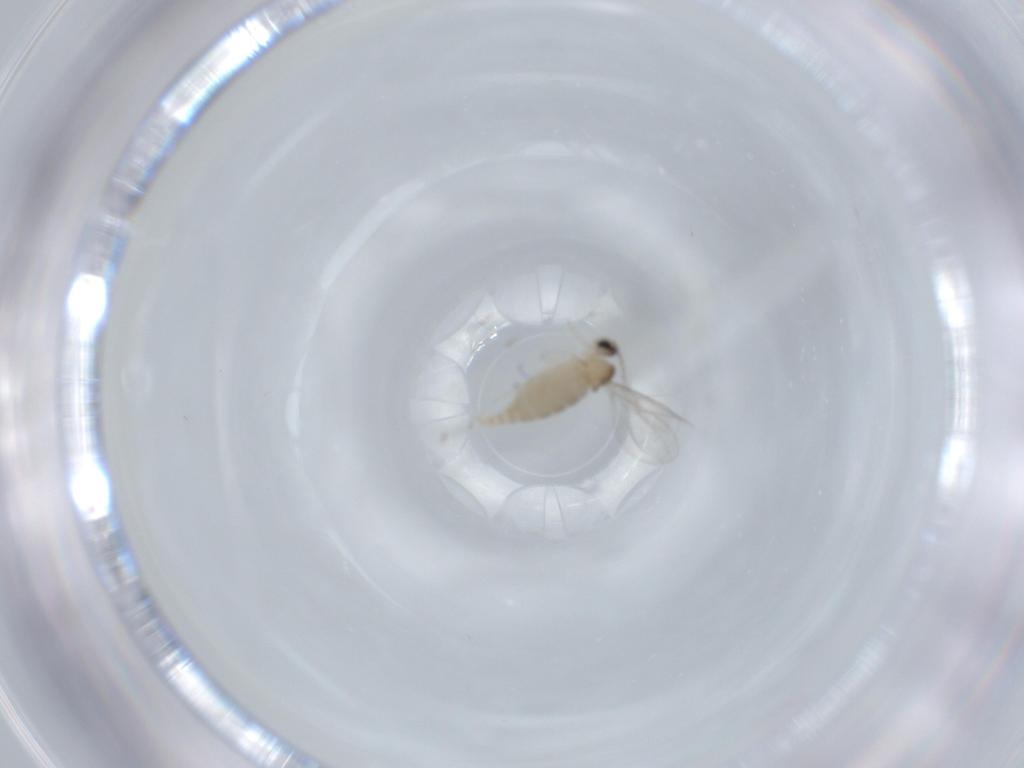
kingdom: Animalia
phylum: Arthropoda
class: Insecta
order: Diptera
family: Cecidomyiidae
